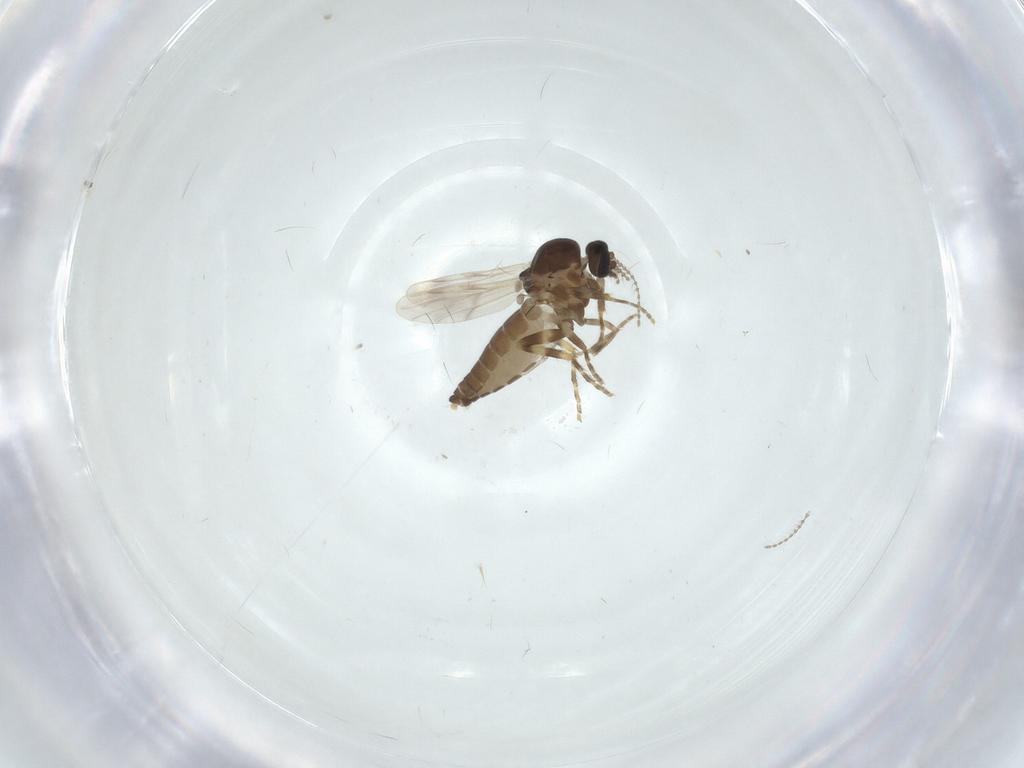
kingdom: Animalia
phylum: Arthropoda
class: Insecta
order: Diptera
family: Ceratopogonidae
